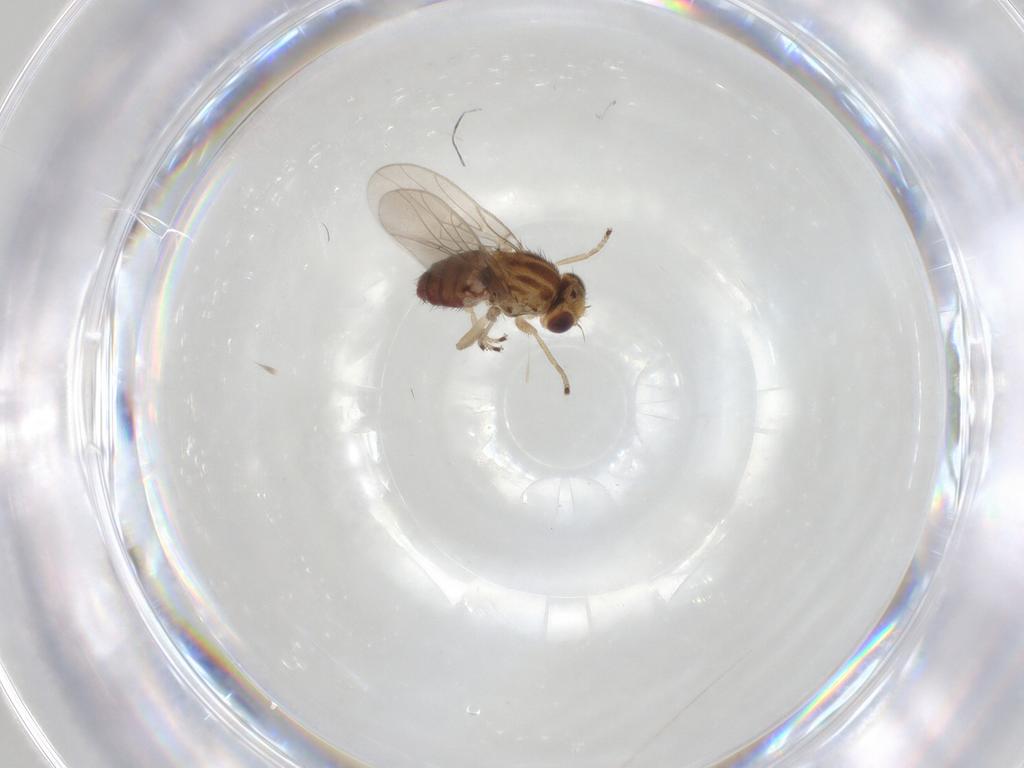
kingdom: Animalia
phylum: Arthropoda
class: Insecta
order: Diptera
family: Chloropidae
